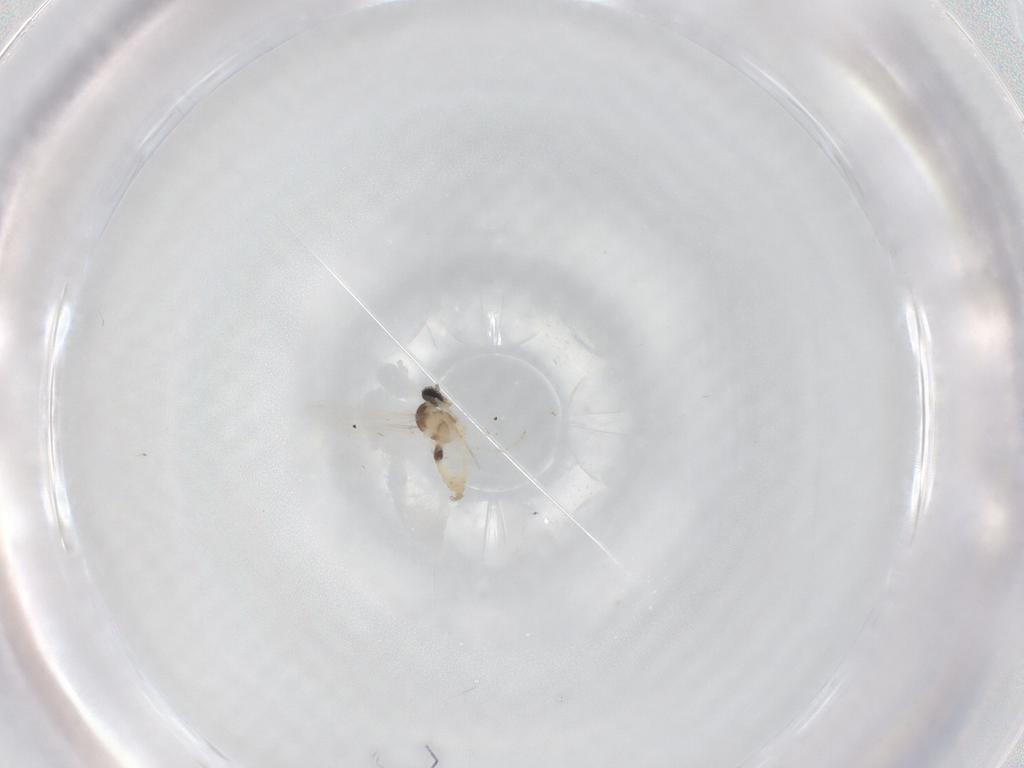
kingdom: Animalia
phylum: Arthropoda
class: Insecta
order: Diptera
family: Cecidomyiidae
